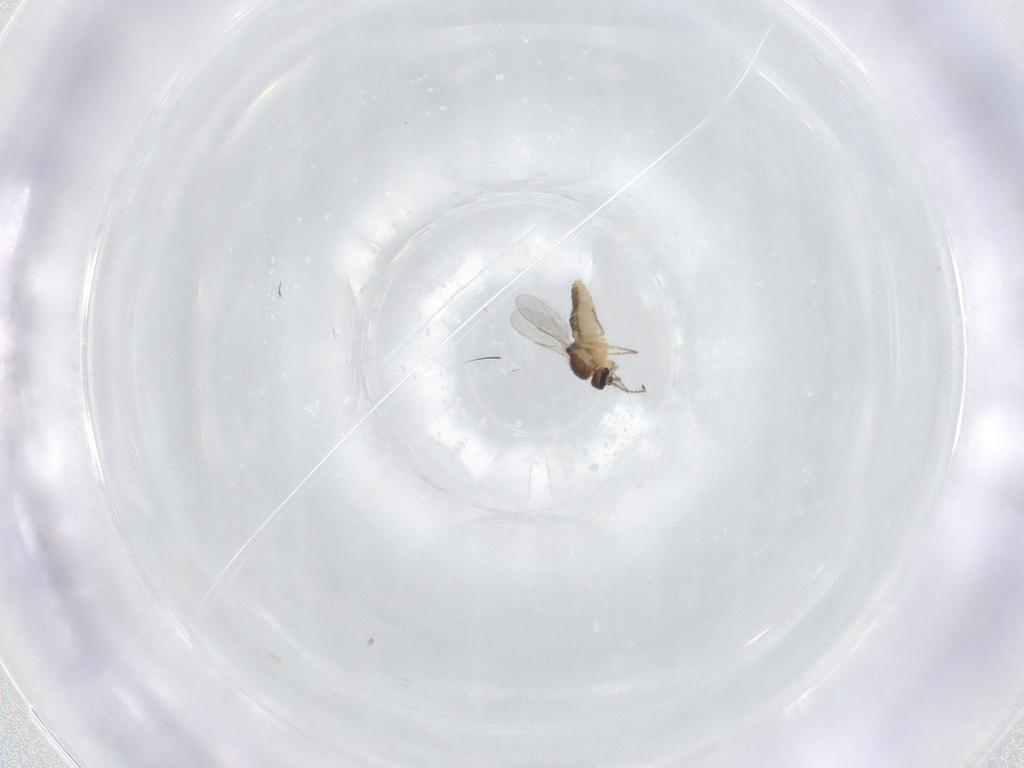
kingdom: Animalia
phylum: Arthropoda
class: Insecta
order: Diptera
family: Ceratopogonidae
